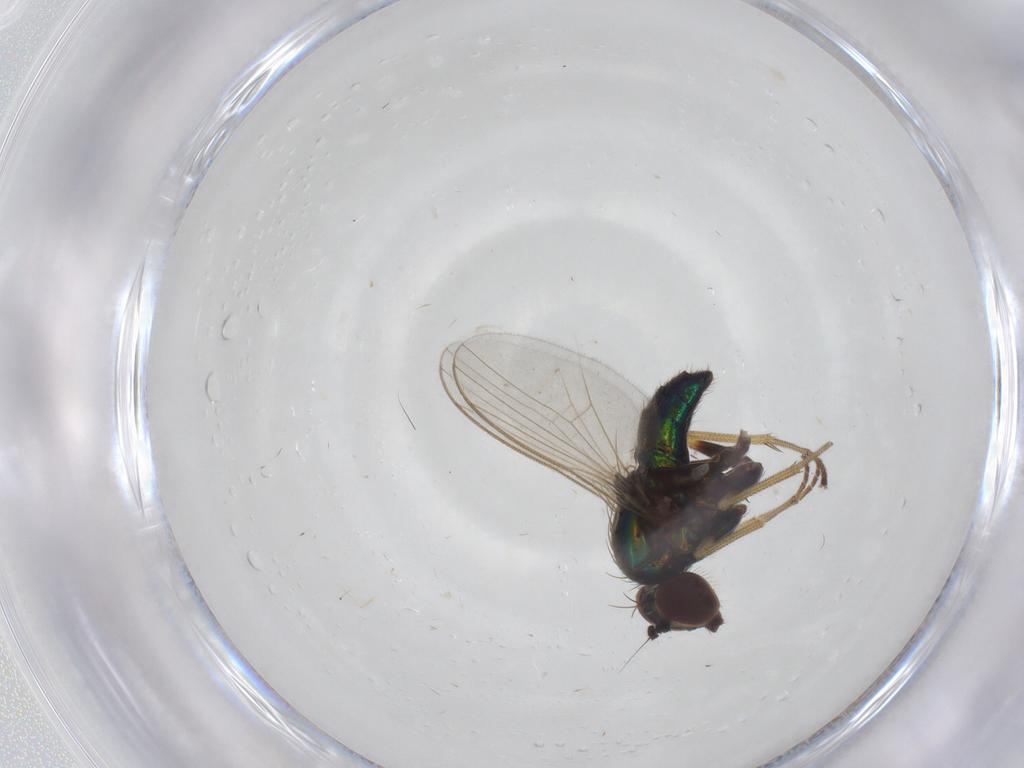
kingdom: Animalia
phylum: Arthropoda
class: Insecta
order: Diptera
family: Dolichopodidae
